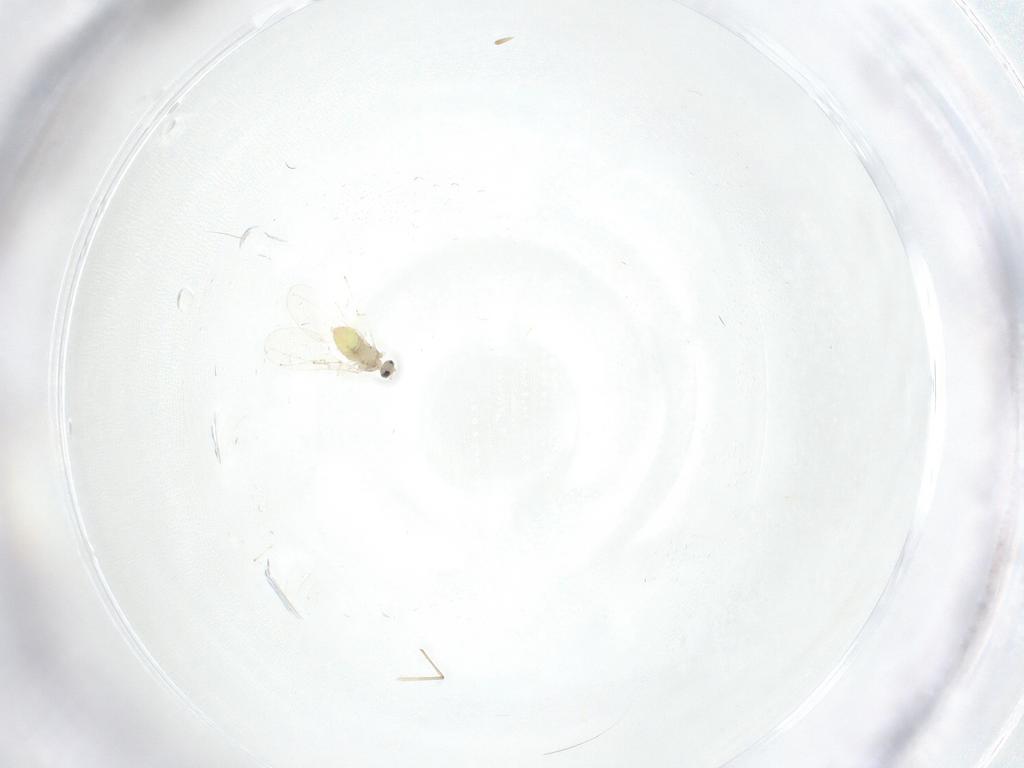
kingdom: Animalia
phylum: Arthropoda
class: Insecta
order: Diptera
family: Cecidomyiidae
